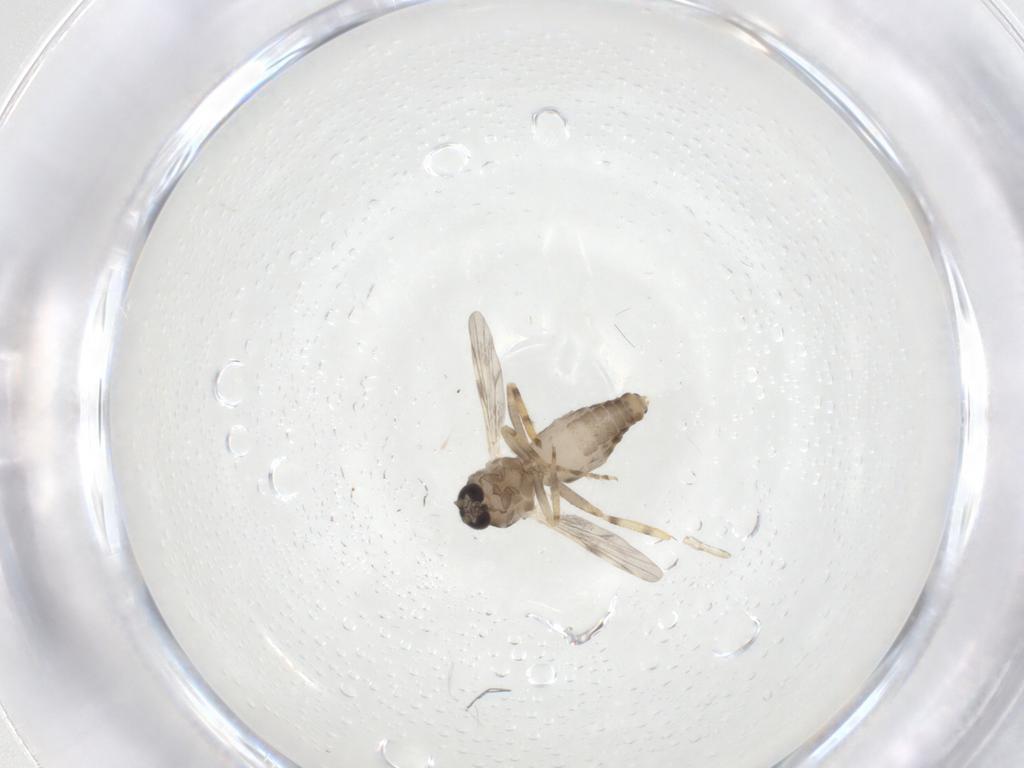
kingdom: Animalia
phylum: Arthropoda
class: Insecta
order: Diptera
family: Ceratopogonidae
